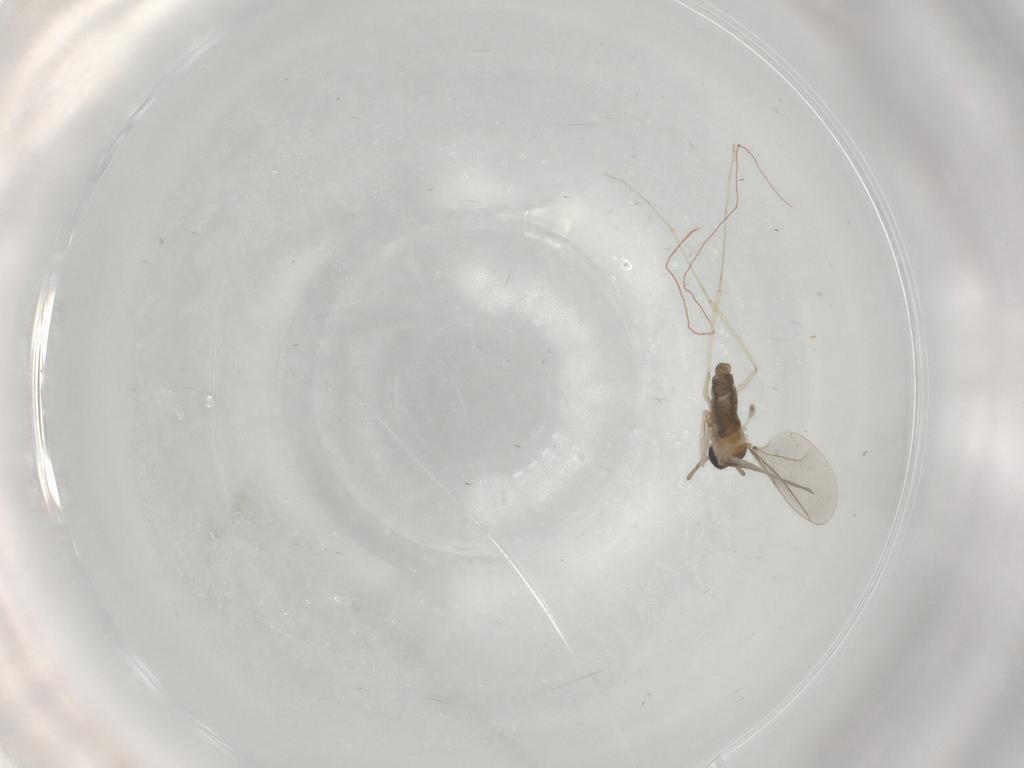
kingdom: Animalia
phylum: Arthropoda
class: Insecta
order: Diptera
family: Cecidomyiidae
